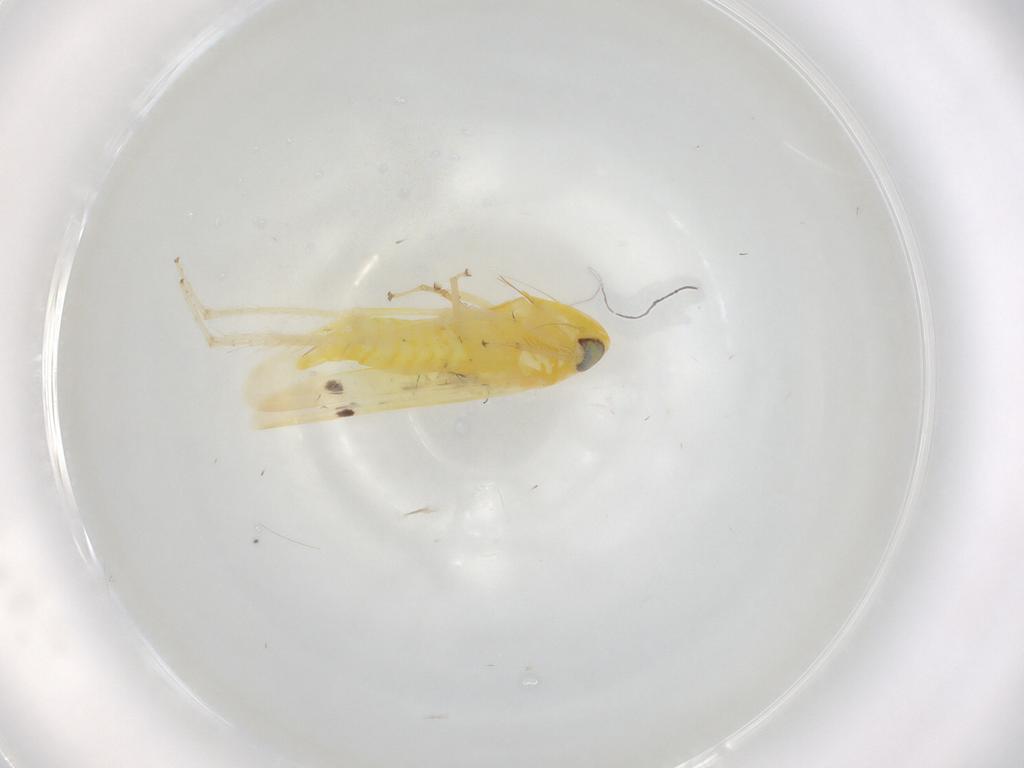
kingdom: Animalia
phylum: Arthropoda
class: Insecta
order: Hemiptera
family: Cicadellidae
